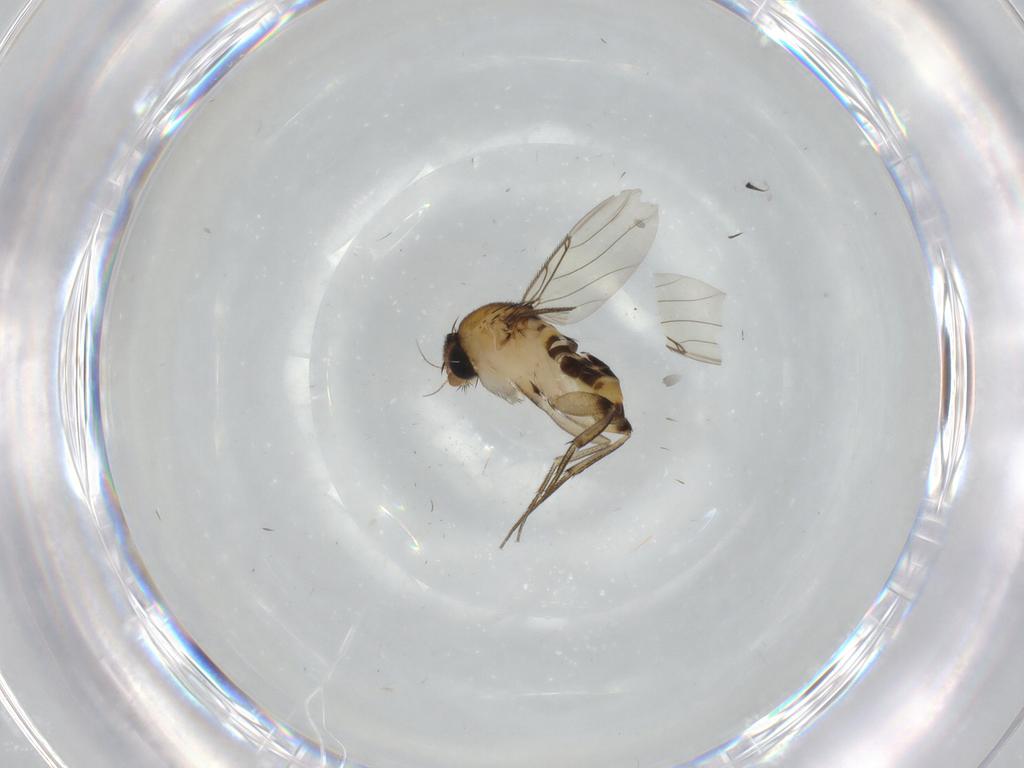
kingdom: Animalia
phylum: Arthropoda
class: Insecta
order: Diptera
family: Phoridae
